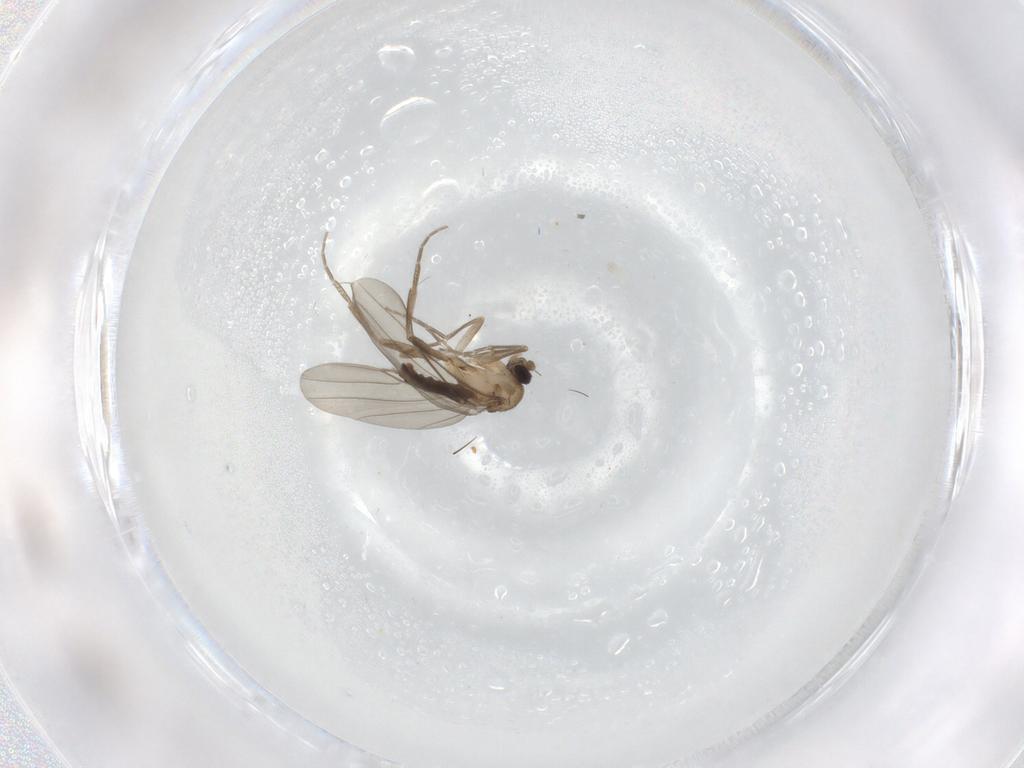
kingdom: Animalia
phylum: Arthropoda
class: Insecta
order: Diptera
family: Phoridae
